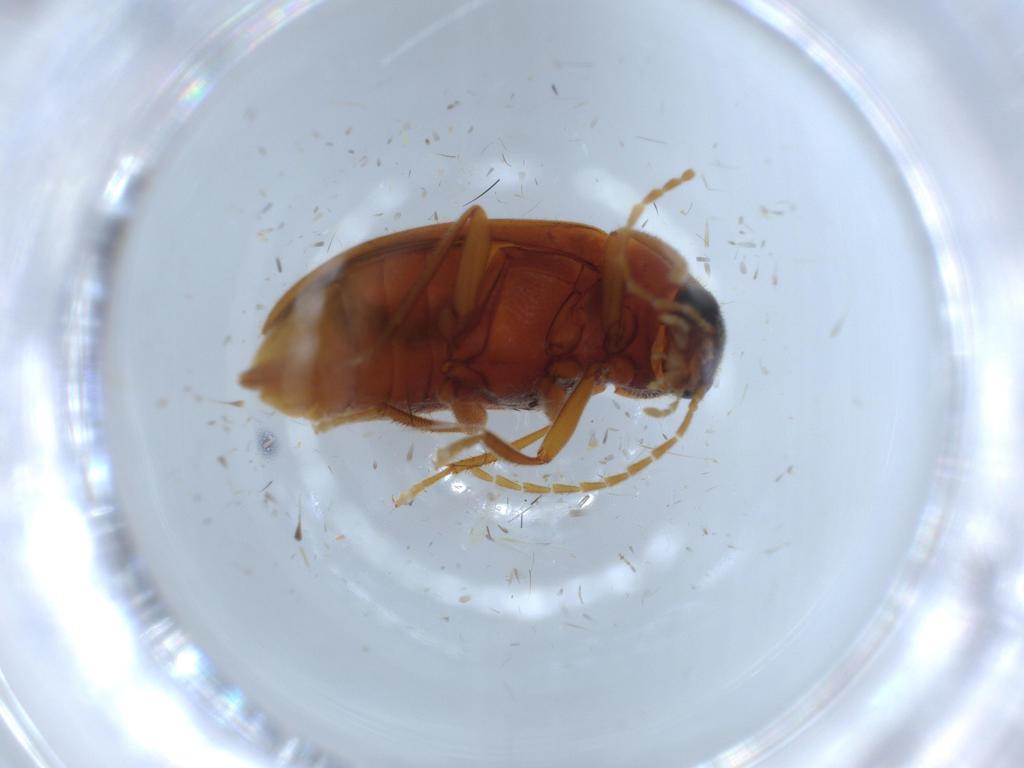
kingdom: Animalia
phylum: Arthropoda
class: Insecta
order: Coleoptera
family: Ptilodactylidae
